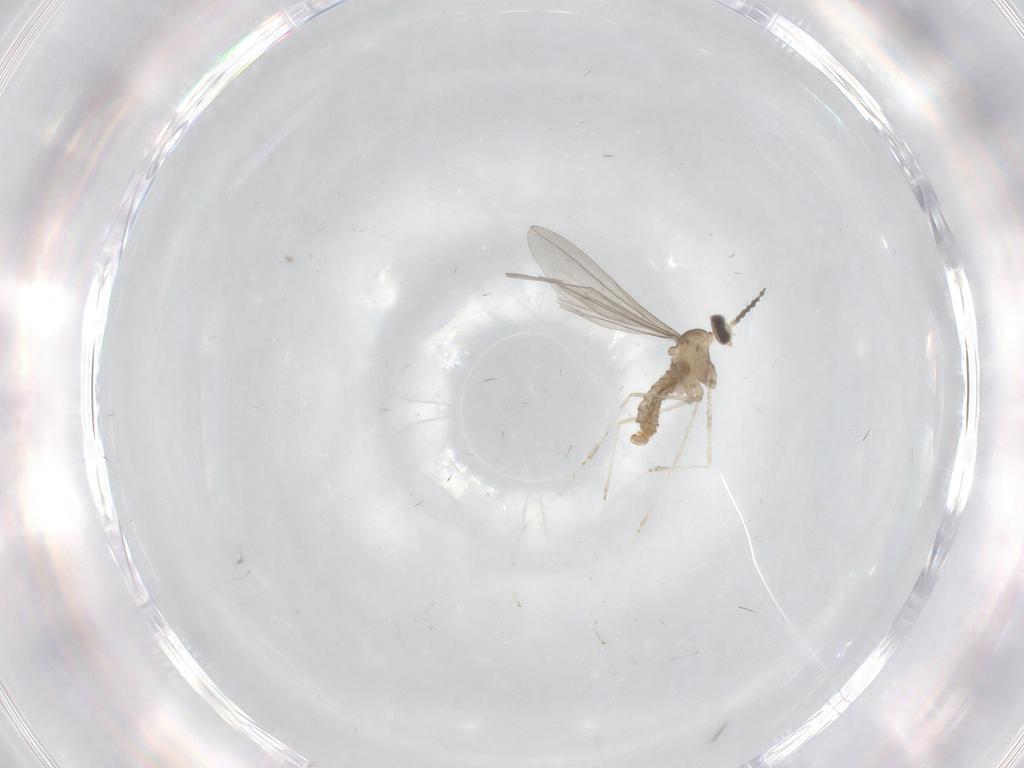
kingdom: Animalia
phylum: Arthropoda
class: Insecta
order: Diptera
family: Cecidomyiidae
